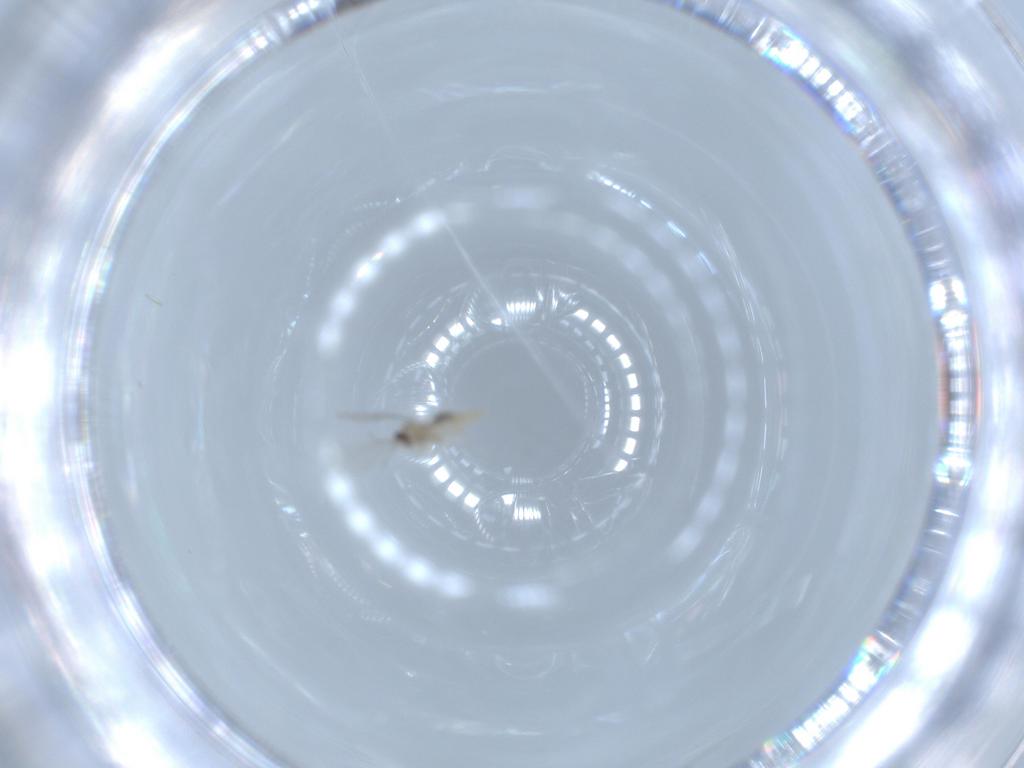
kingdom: Animalia
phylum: Arthropoda
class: Insecta
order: Diptera
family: Cecidomyiidae
